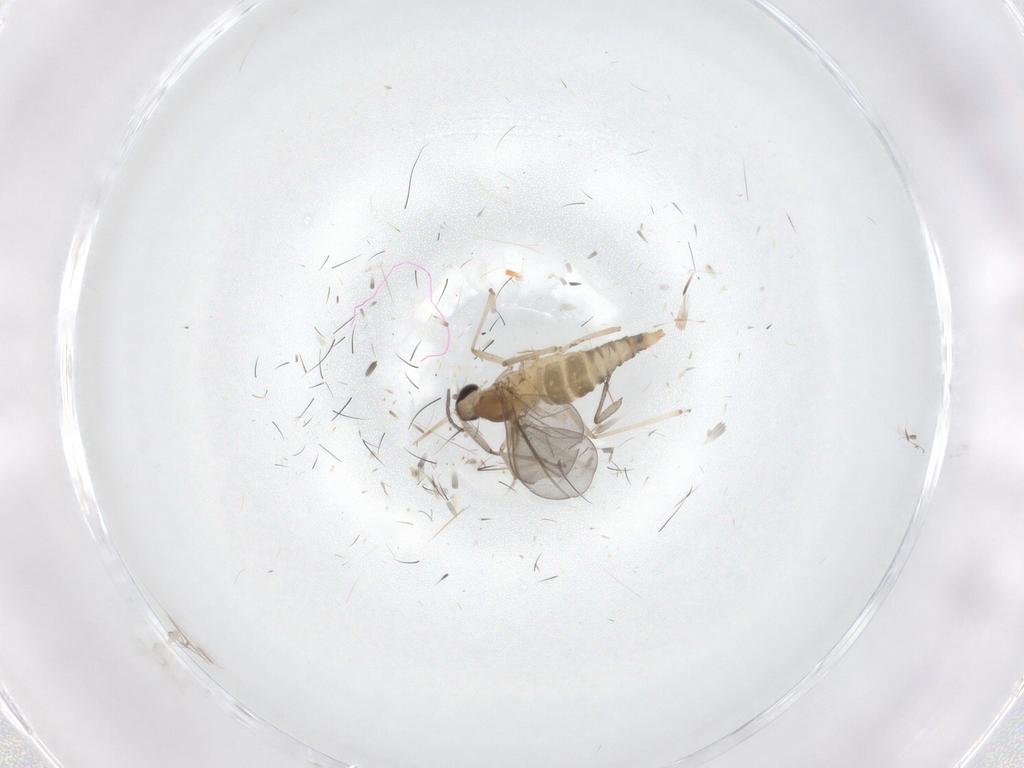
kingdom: Animalia
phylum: Arthropoda
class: Insecta
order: Diptera
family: Cecidomyiidae
